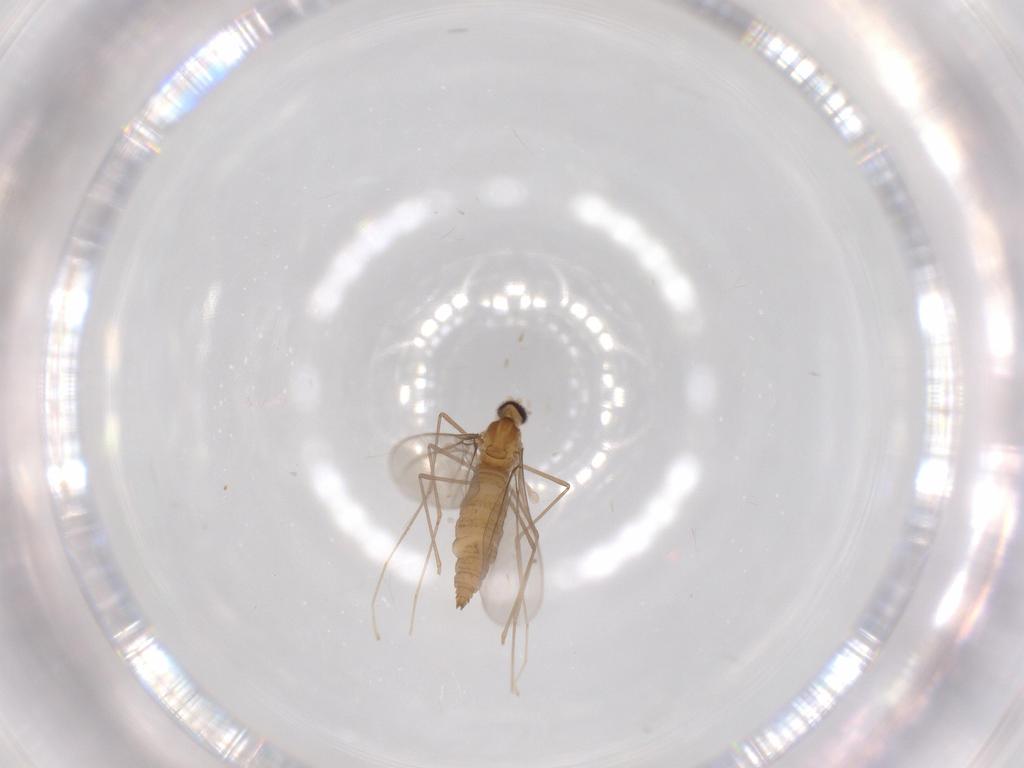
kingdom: Animalia
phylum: Arthropoda
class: Insecta
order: Diptera
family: Cecidomyiidae
